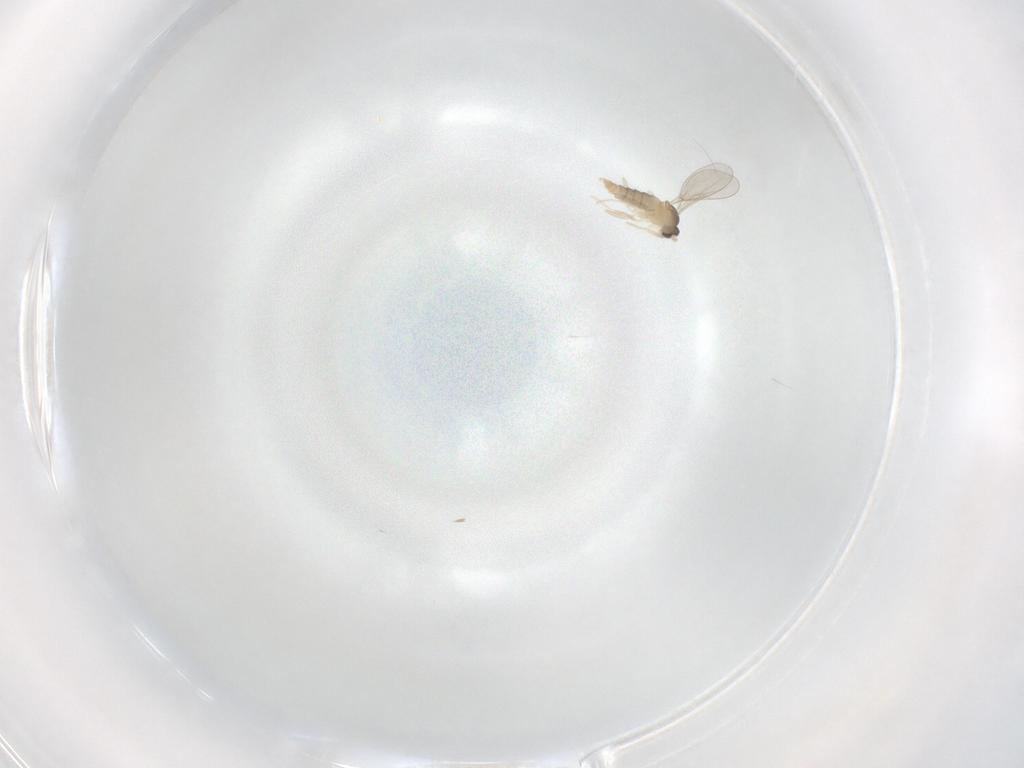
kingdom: Animalia
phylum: Arthropoda
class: Insecta
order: Diptera
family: Cecidomyiidae
